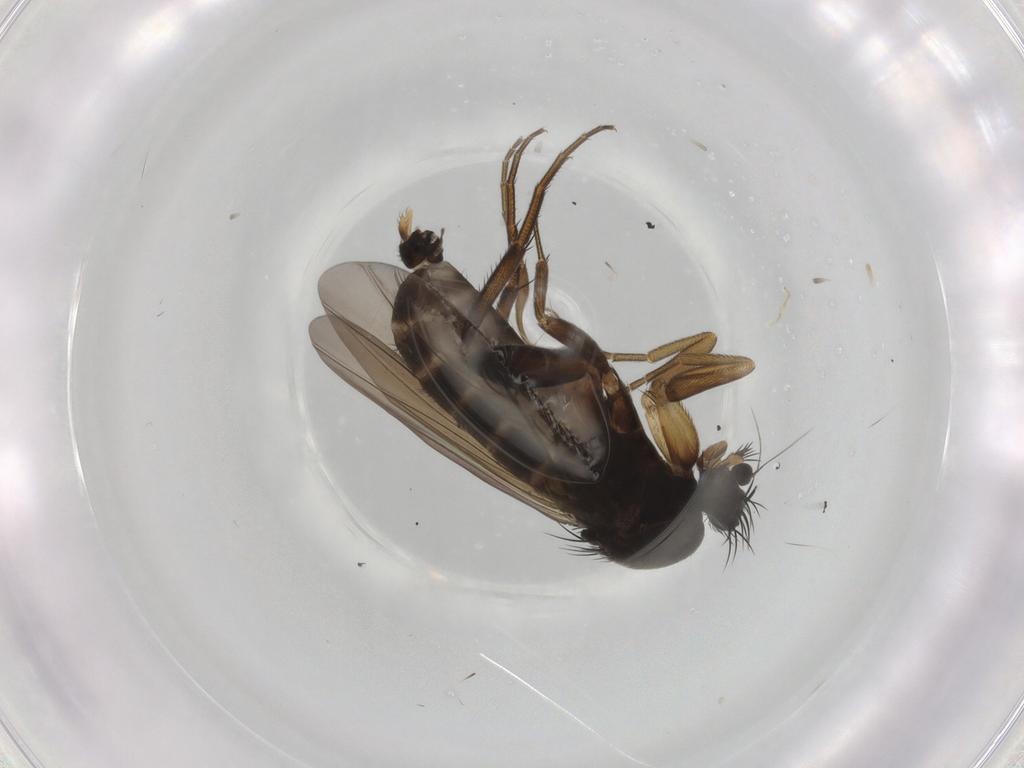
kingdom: Animalia
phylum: Arthropoda
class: Insecta
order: Diptera
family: Phoridae
